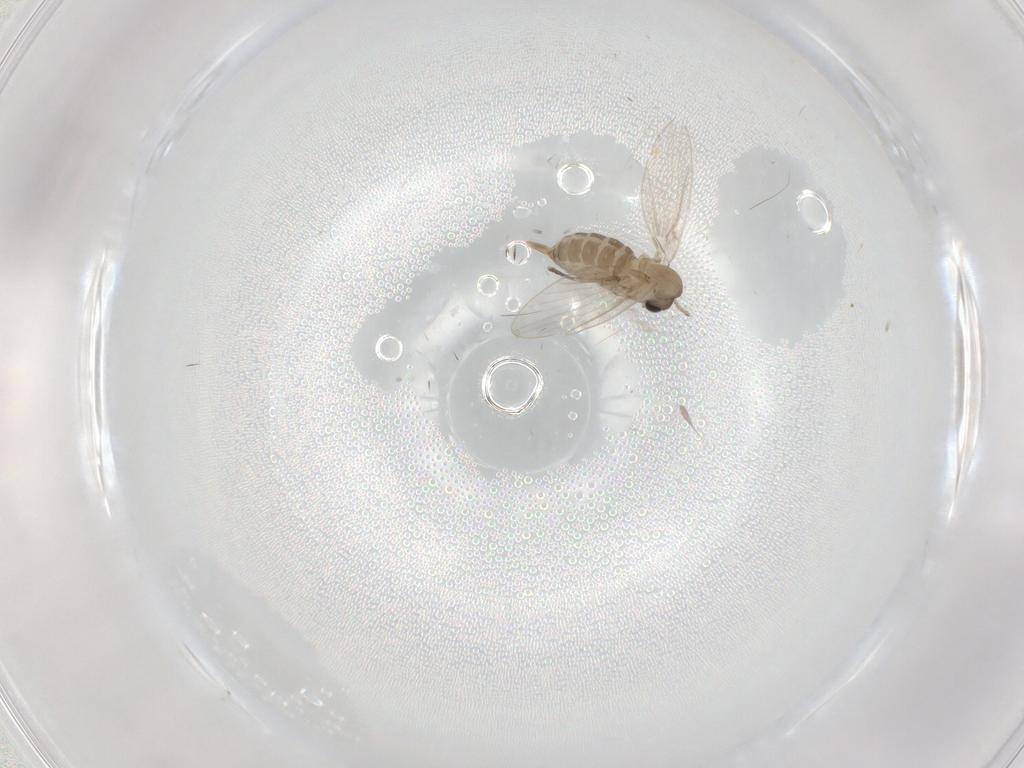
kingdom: Animalia
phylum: Arthropoda
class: Insecta
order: Diptera
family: Psychodidae
